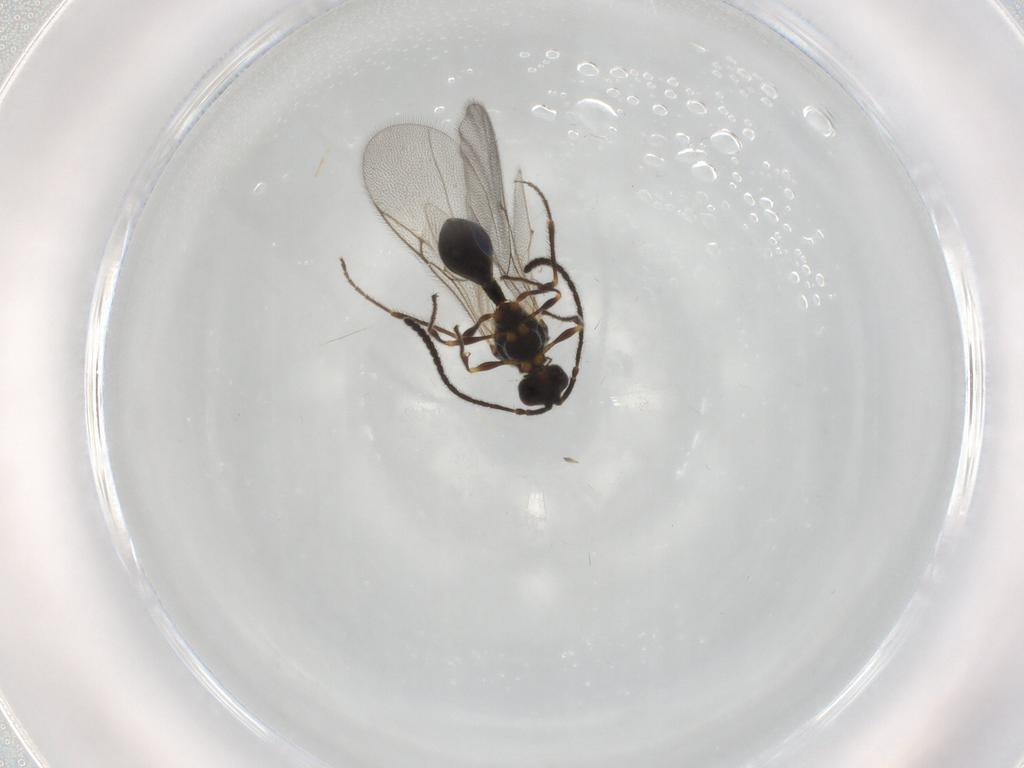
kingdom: Animalia
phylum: Arthropoda
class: Insecta
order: Hymenoptera
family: Diapriidae
